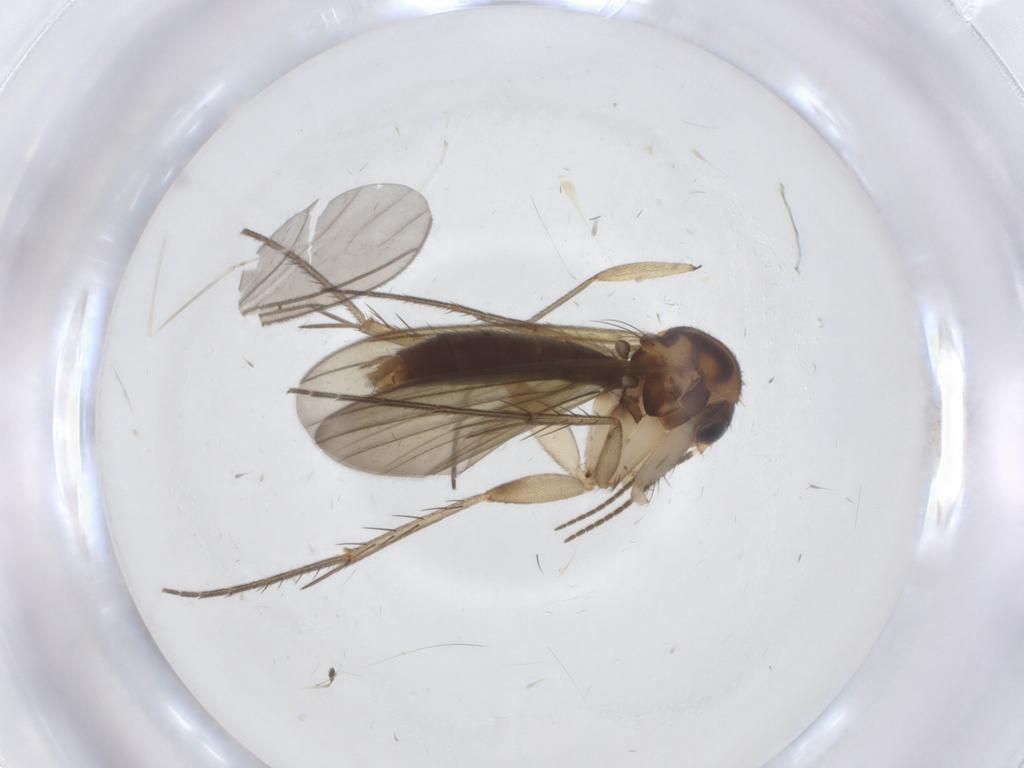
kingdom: Animalia
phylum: Arthropoda
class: Insecta
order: Diptera
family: Mycetophilidae
